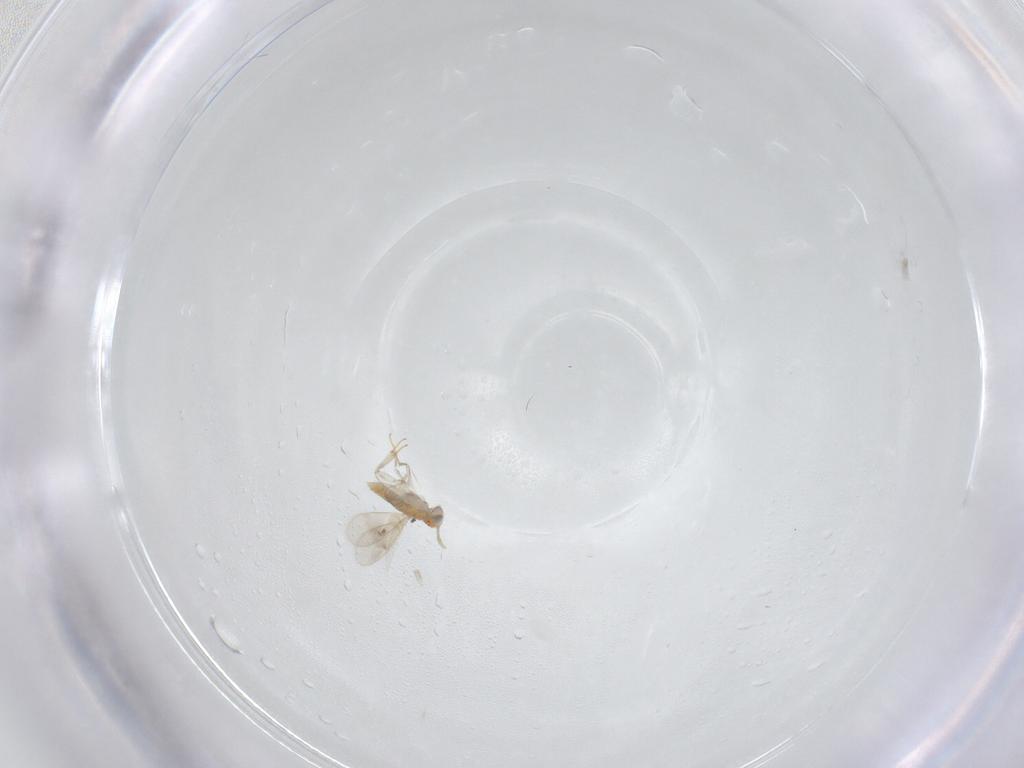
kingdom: Animalia
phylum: Arthropoda
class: Insecta
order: Hymenoptera
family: Aphelinidae
